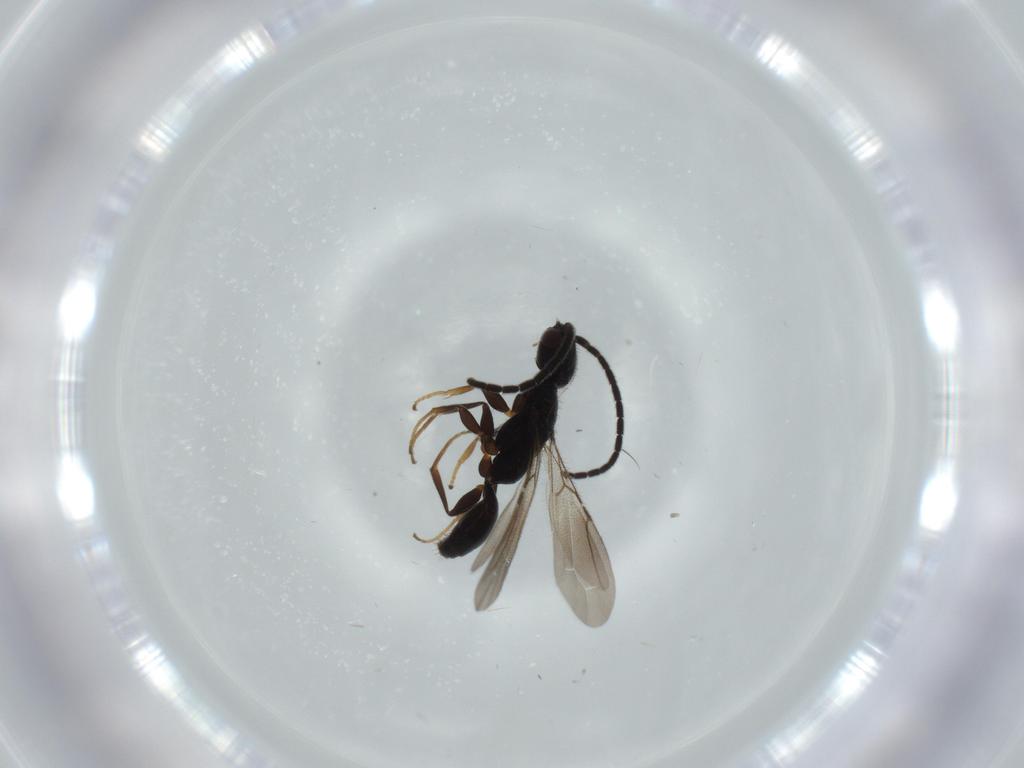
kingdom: Animalia
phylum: Arthropoda
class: Insecta
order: Hymenoptera
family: Bethylidae
